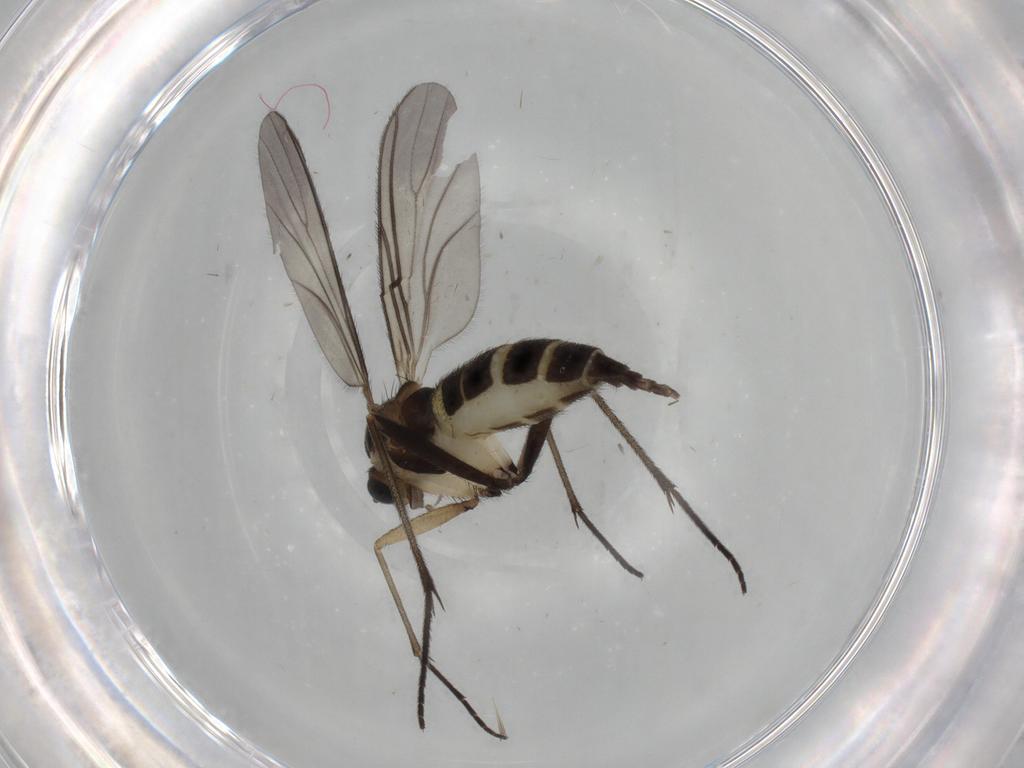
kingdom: Animalia
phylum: Arthropoda
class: Insecta
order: Diptera
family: Sciaridae
